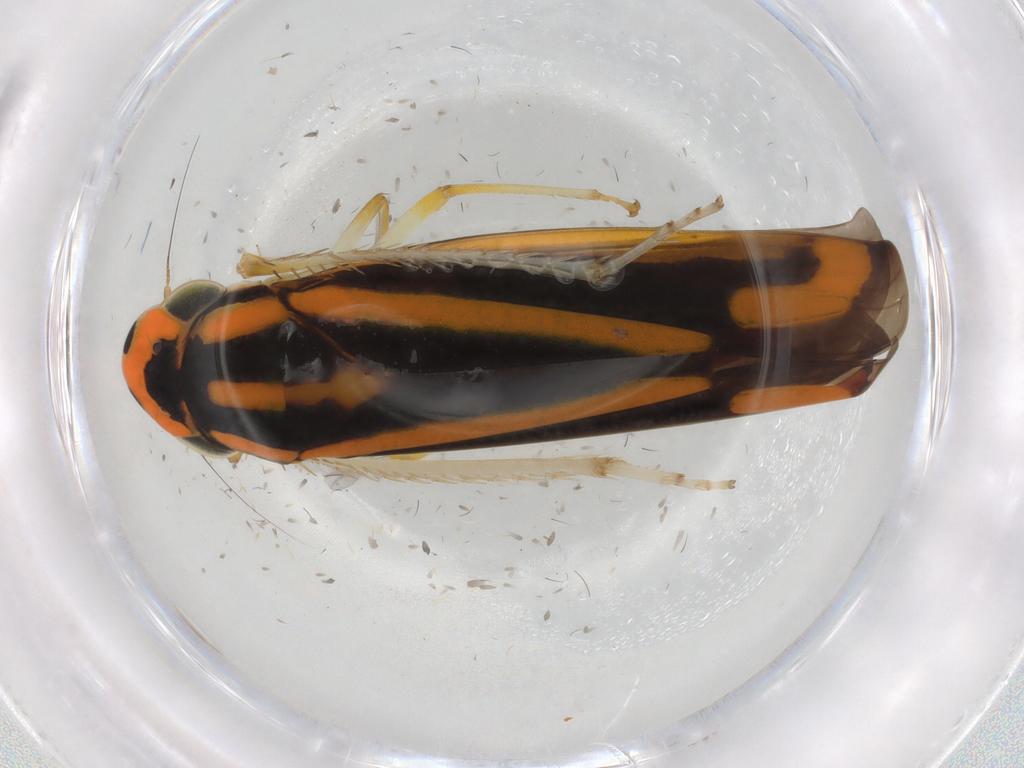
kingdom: Animalia
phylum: Arthropoda
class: Insecta
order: Hemiptera
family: Cicadellidae
